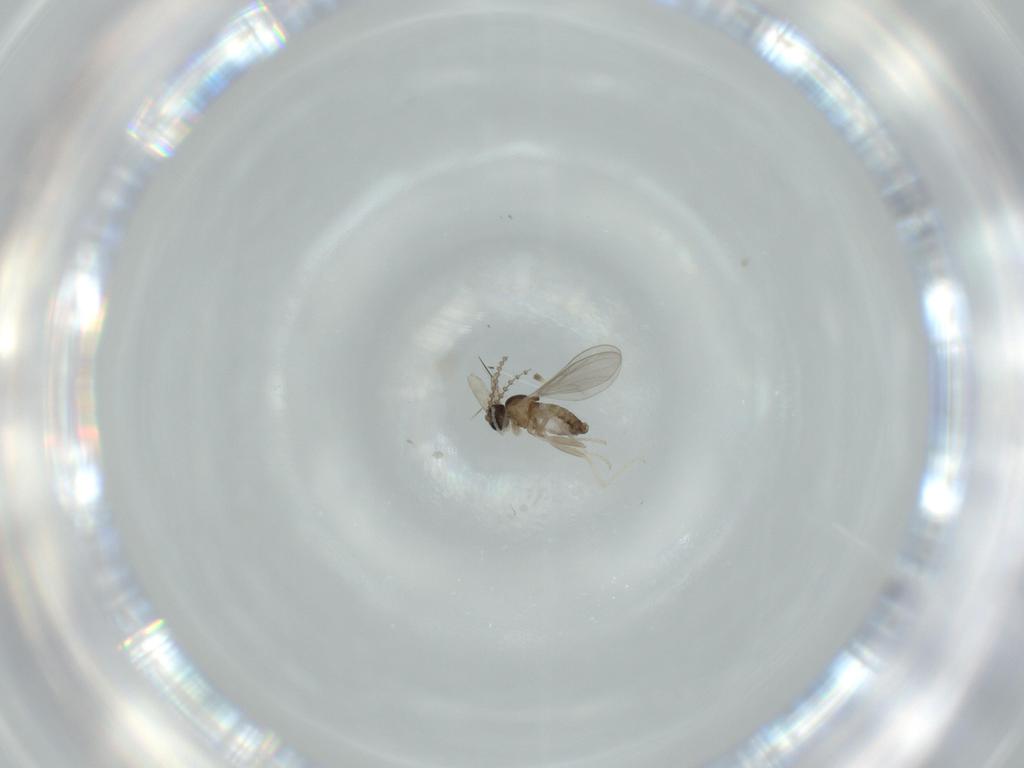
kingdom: Animalia
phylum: Arthropoda
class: Insecta
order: Diptera
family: Cecidomyiidae
